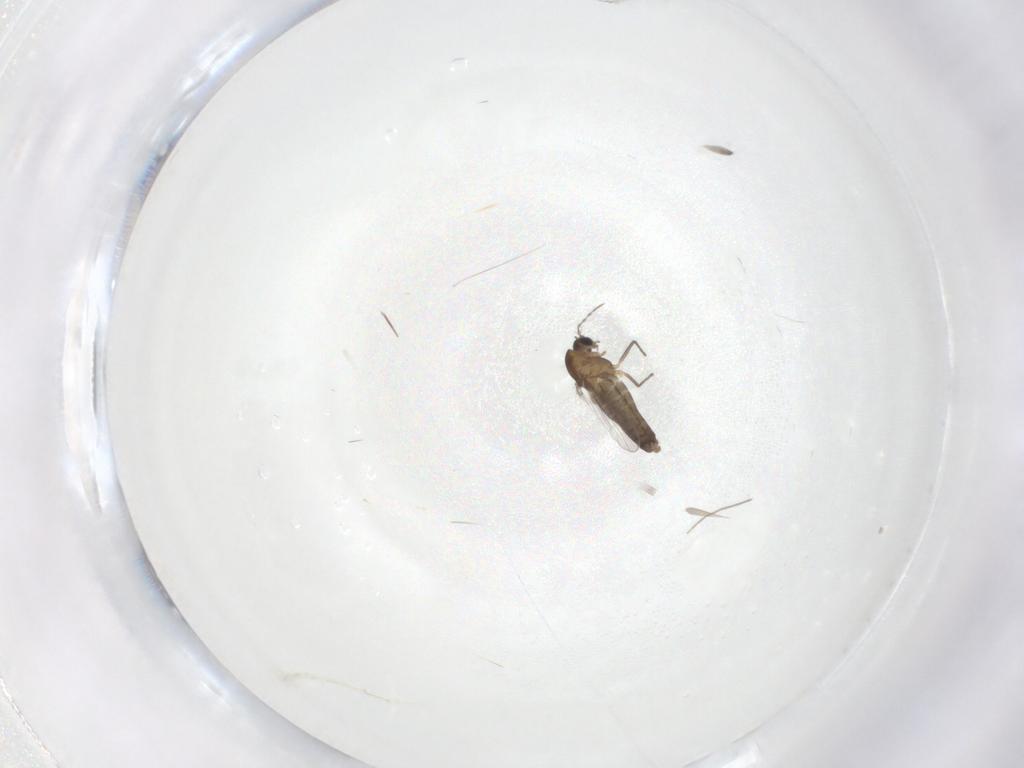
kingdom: Animalia
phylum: Arthropoda
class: Insecta
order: Diptera
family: Chironomidae
